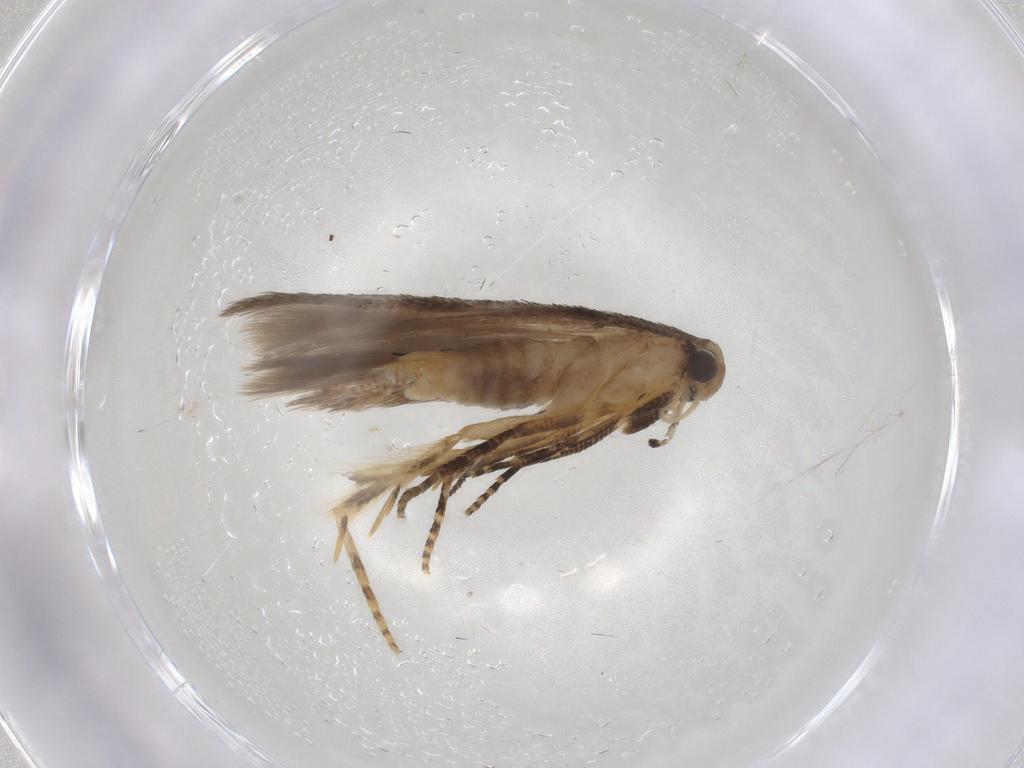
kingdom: Animalia
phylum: Arthropoda
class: Insecta
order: Lepidoptera
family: Gelechiidae
